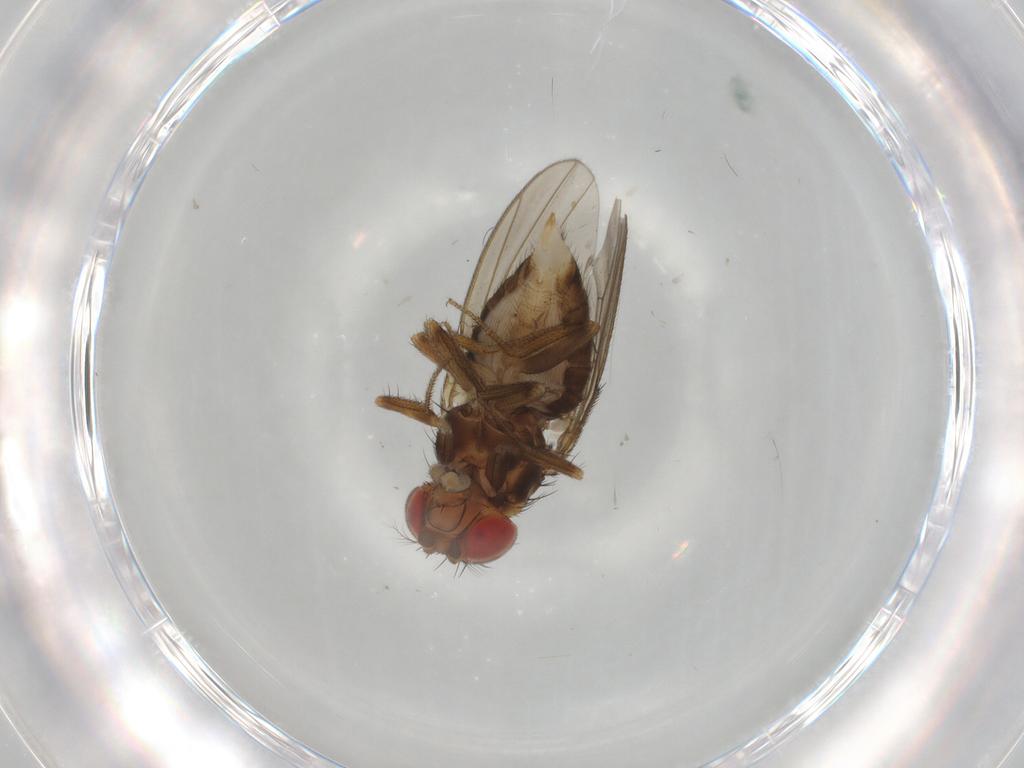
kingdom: Animalia
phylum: Arthropoda
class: Insecta
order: Diptera
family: Drosophilidae
